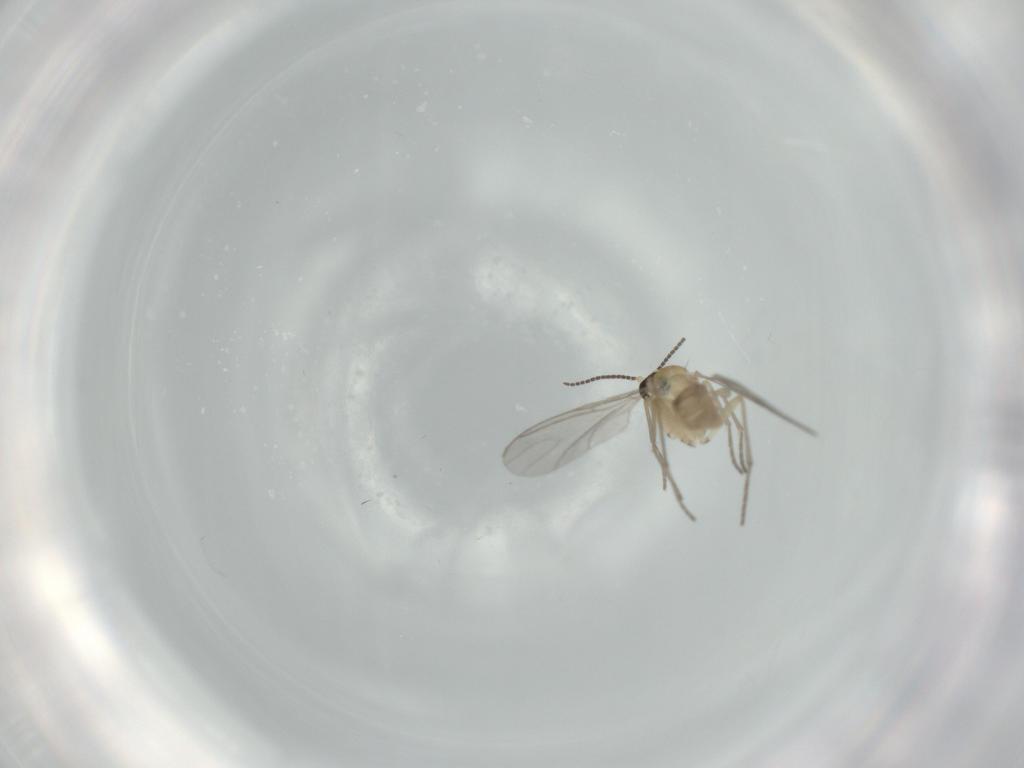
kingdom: Animalia
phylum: Arthropoda
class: Insecta
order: Diptera
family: Sciaridae
